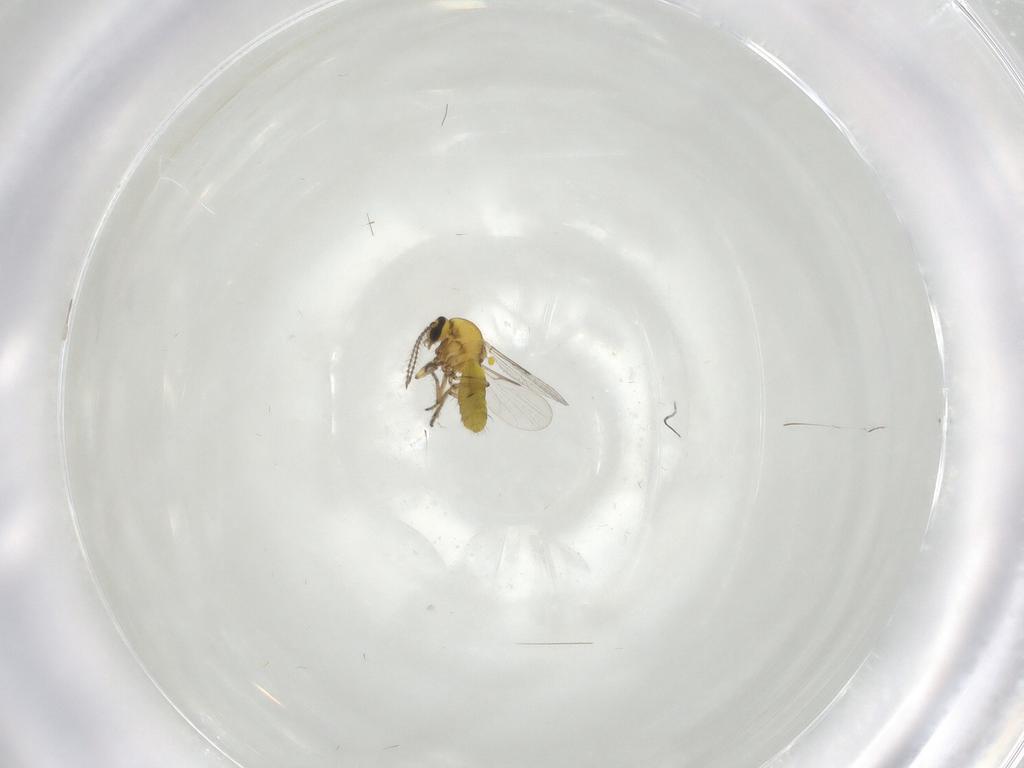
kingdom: Animalia
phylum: Arthropoda
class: Insecta
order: Diptera
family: Ceratopogonidae
